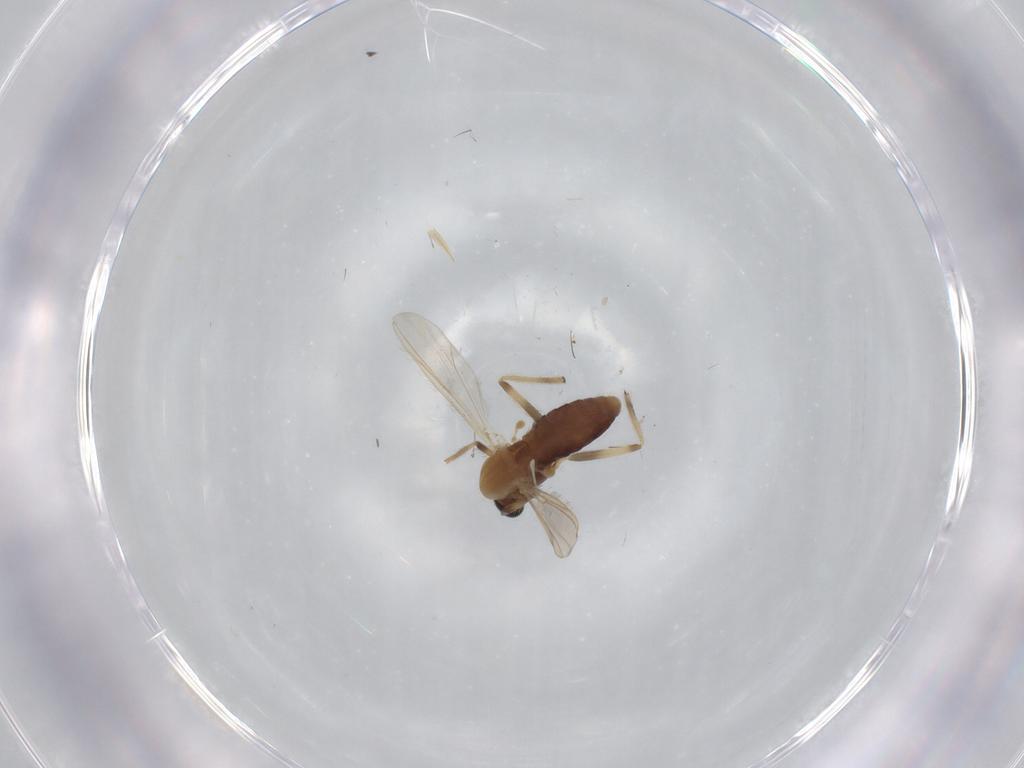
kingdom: Animalia
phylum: Arthropoda
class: Insecta
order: Diptera
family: Chironomidae
